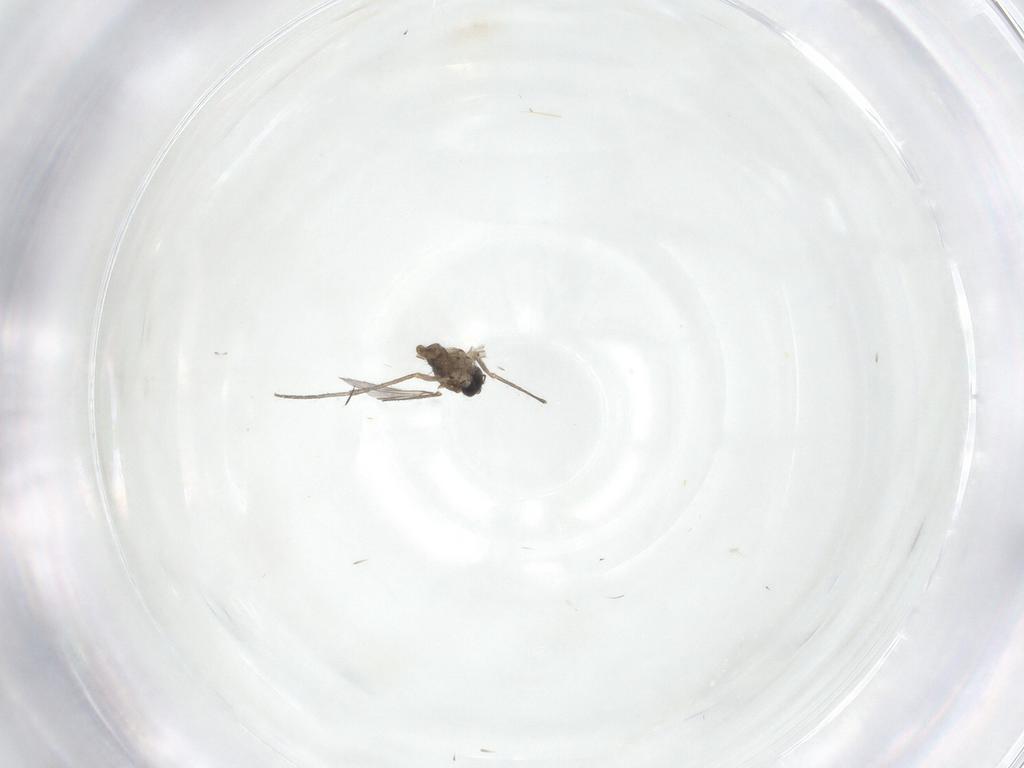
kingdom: Animalia
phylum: Arthropoda
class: Insecta
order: Diptera
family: Sciaridae
